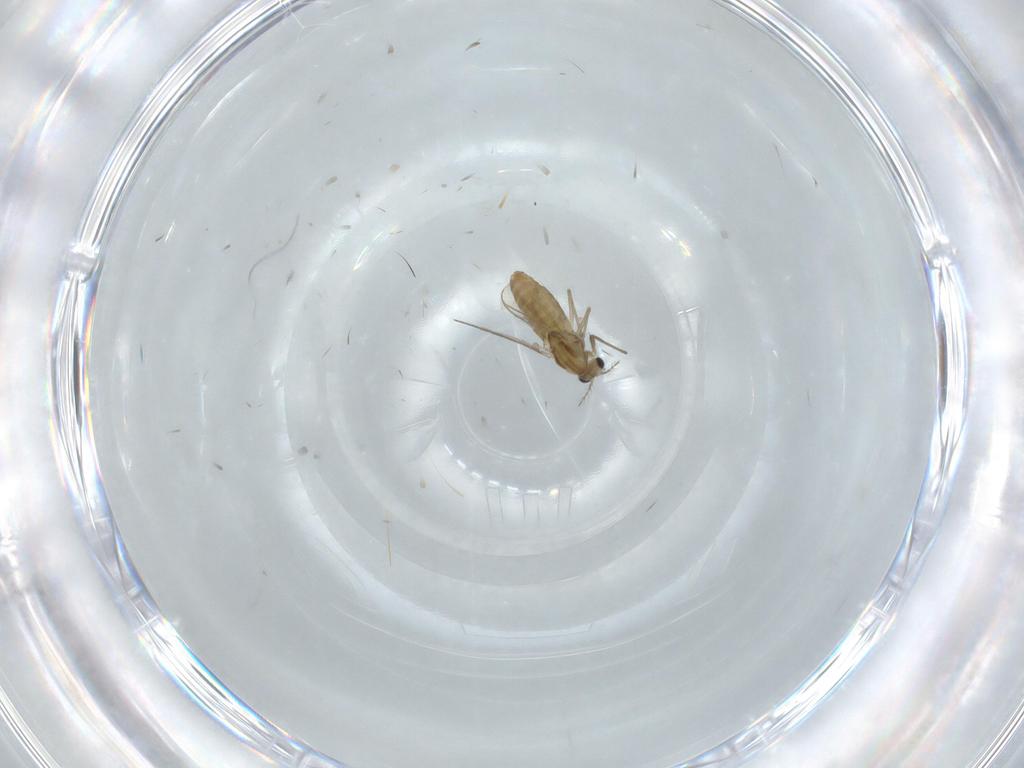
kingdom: Animalia
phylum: Arthropoda
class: Insecta
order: Diptera
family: Chironomidae
